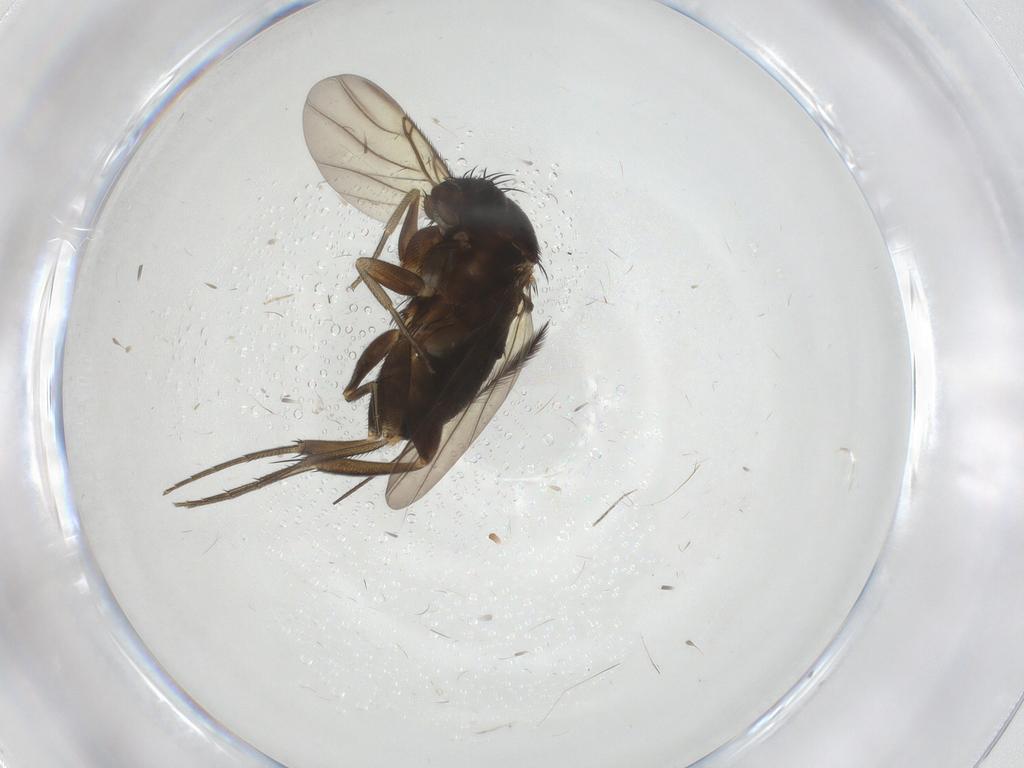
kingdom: Animalia
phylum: Arthropoda
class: Insecta
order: Diptera
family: Phoridae
